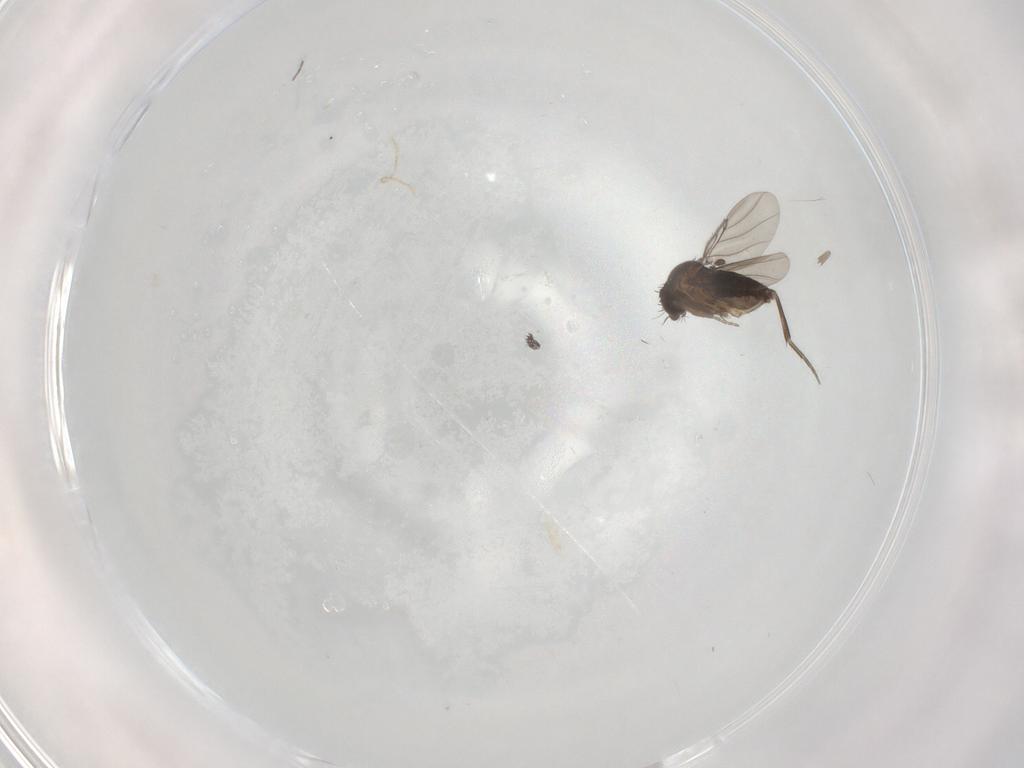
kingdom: Animalia
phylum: Arthropoda
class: Insecta
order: Diptera
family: Phoridae
